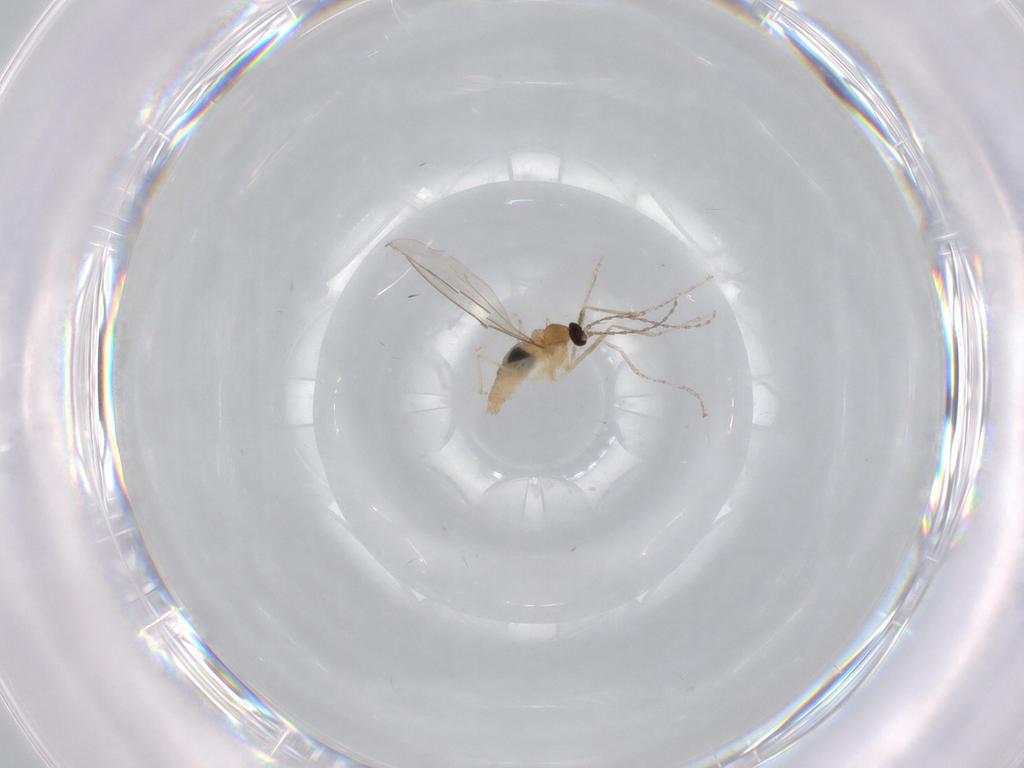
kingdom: Animalia
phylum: Arthropoda
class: Insecta
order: Diptera
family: Cecidomyiidae
